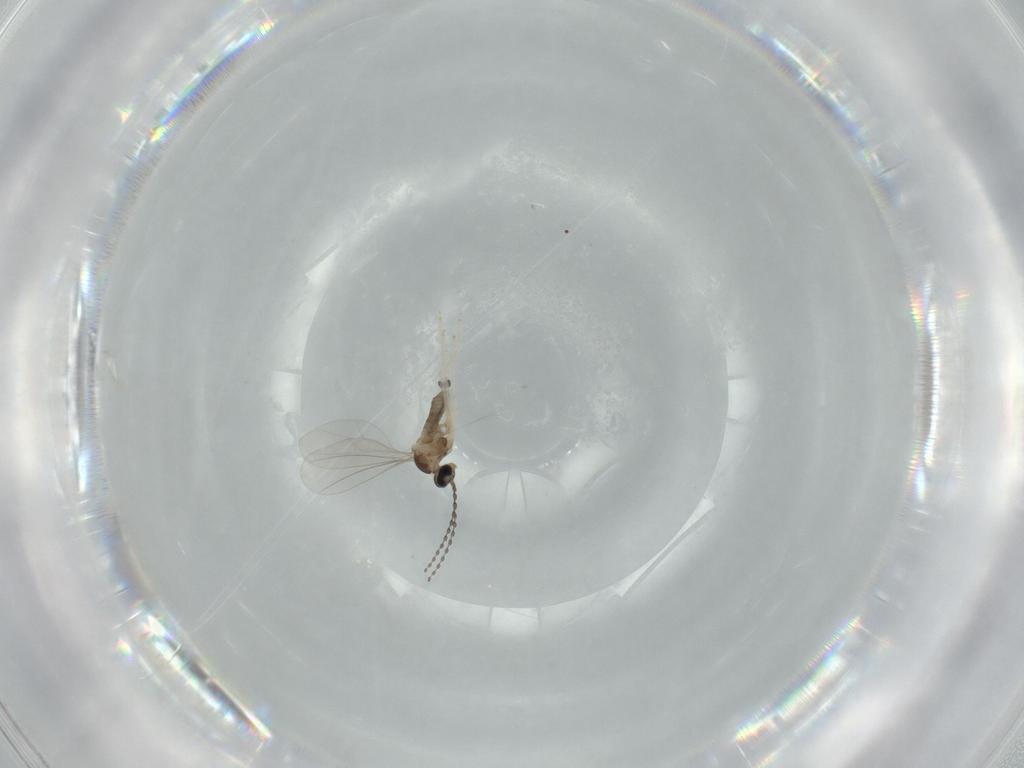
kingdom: Animalia
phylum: Arthropoda
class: Insecta
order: Diptera
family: Cecidomyiidae
